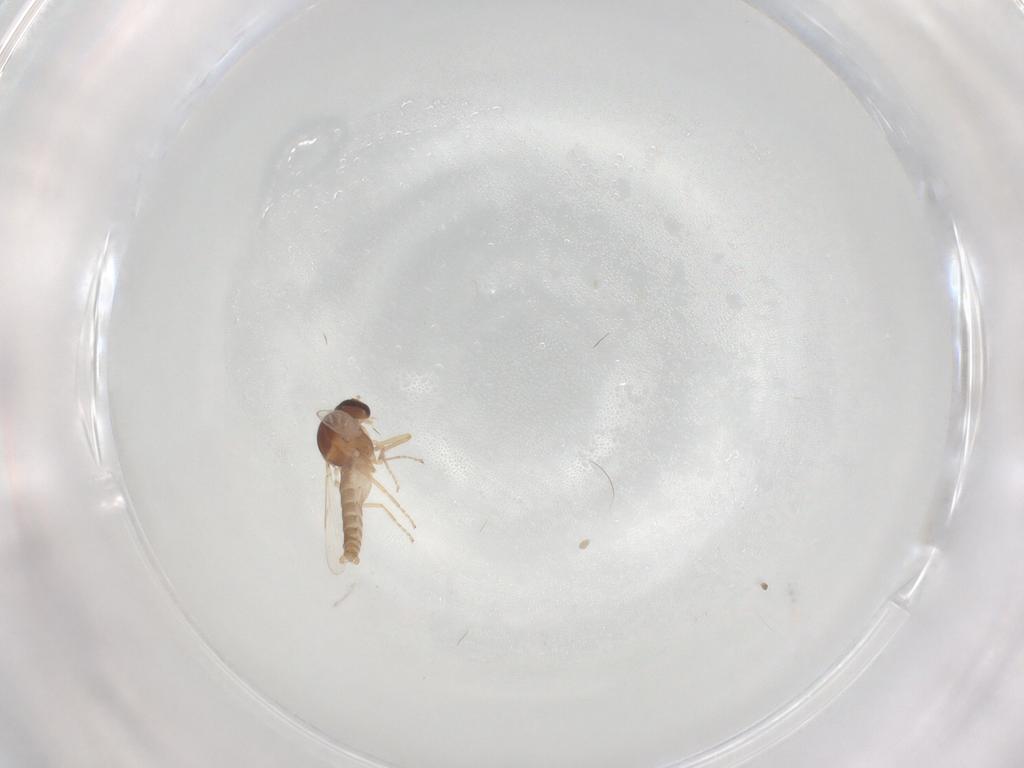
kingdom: Animalia
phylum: Arthropoda
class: Insecta
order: Diptera
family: Ceratopogonidae
